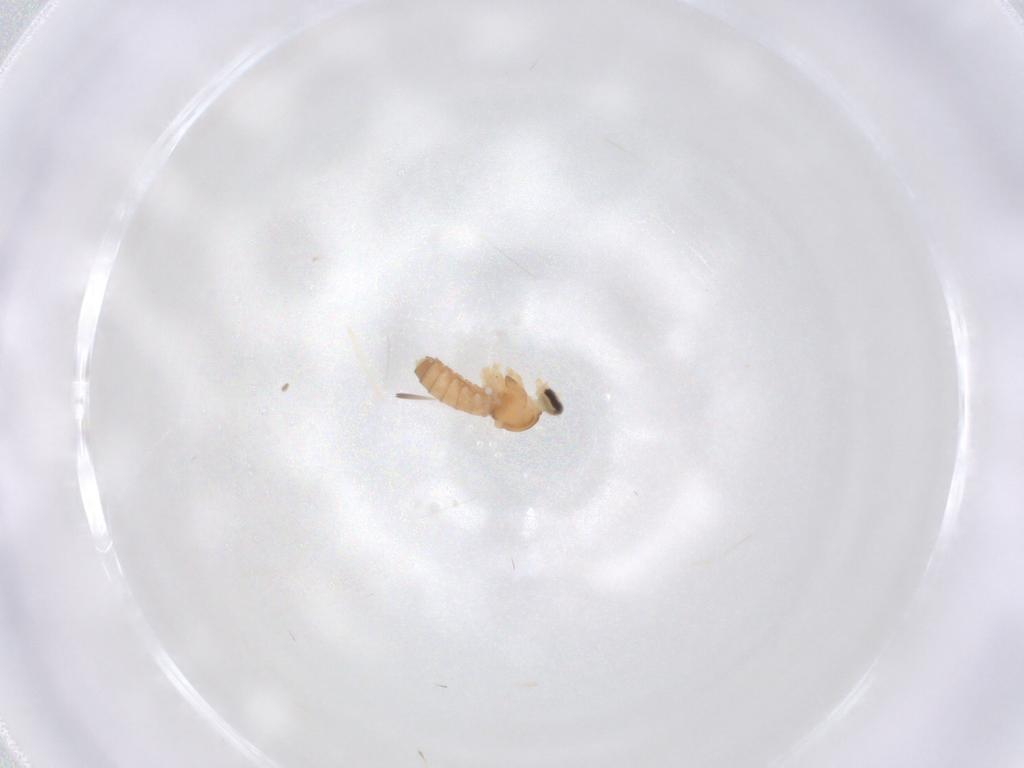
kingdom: Animalia
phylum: Arthropoda
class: Insecta
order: Diptera
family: Cecidomyiidae
